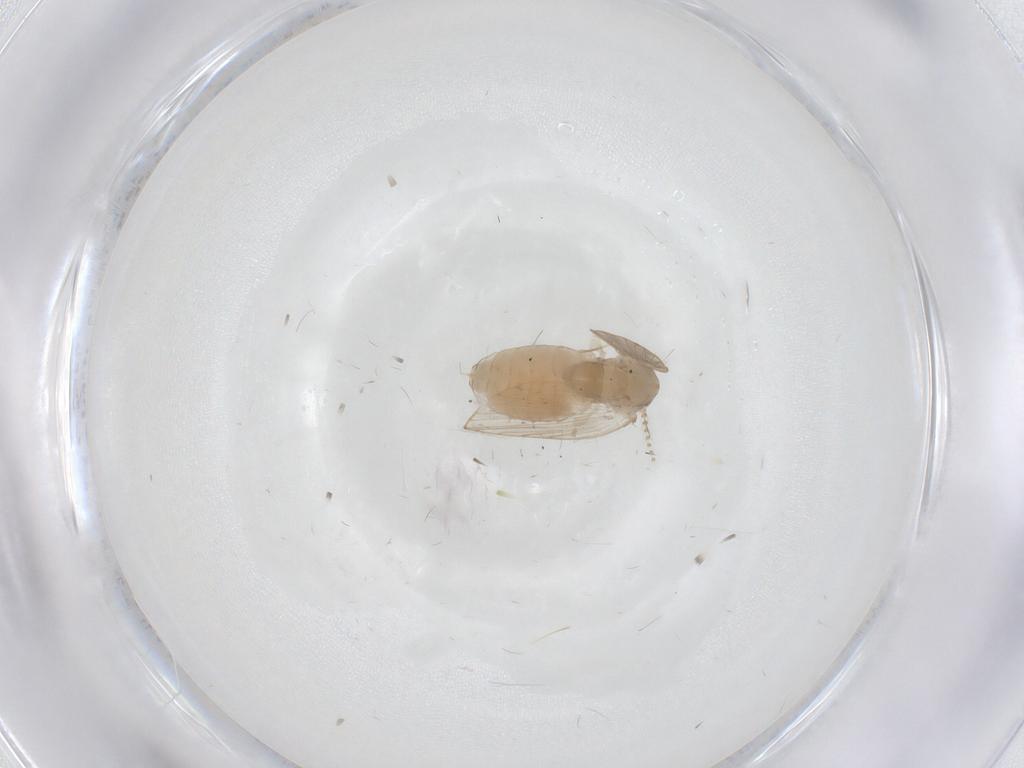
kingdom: Animalia
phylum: Arthropoda
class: Insecta
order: Diptera
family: Psychodidae
